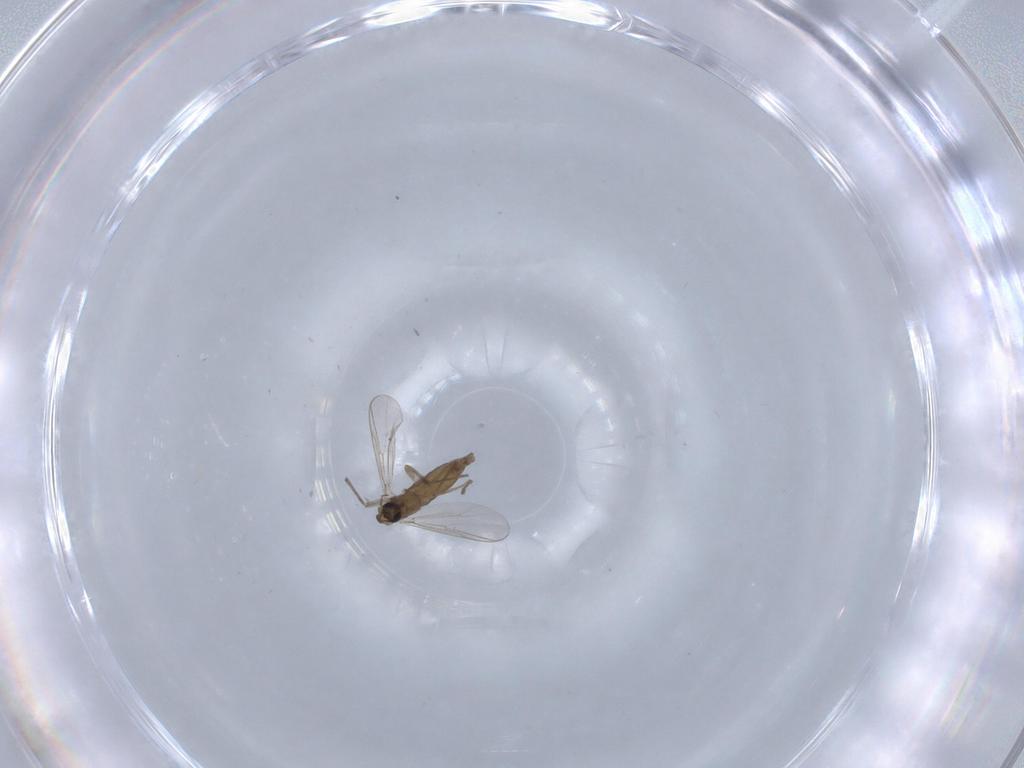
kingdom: Animalia
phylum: Arthropoda
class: Insecta
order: Diptera
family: Chironomidae
